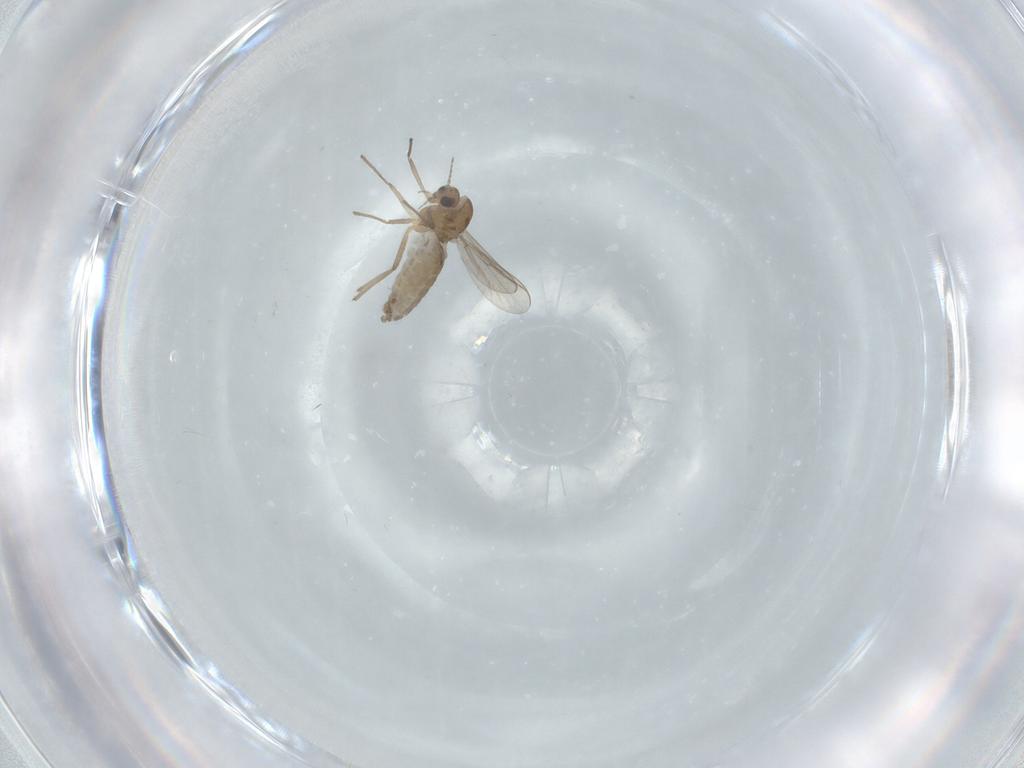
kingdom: Animalia
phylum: Arthropoda
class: Insecta
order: Diptera
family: Chironomidae
